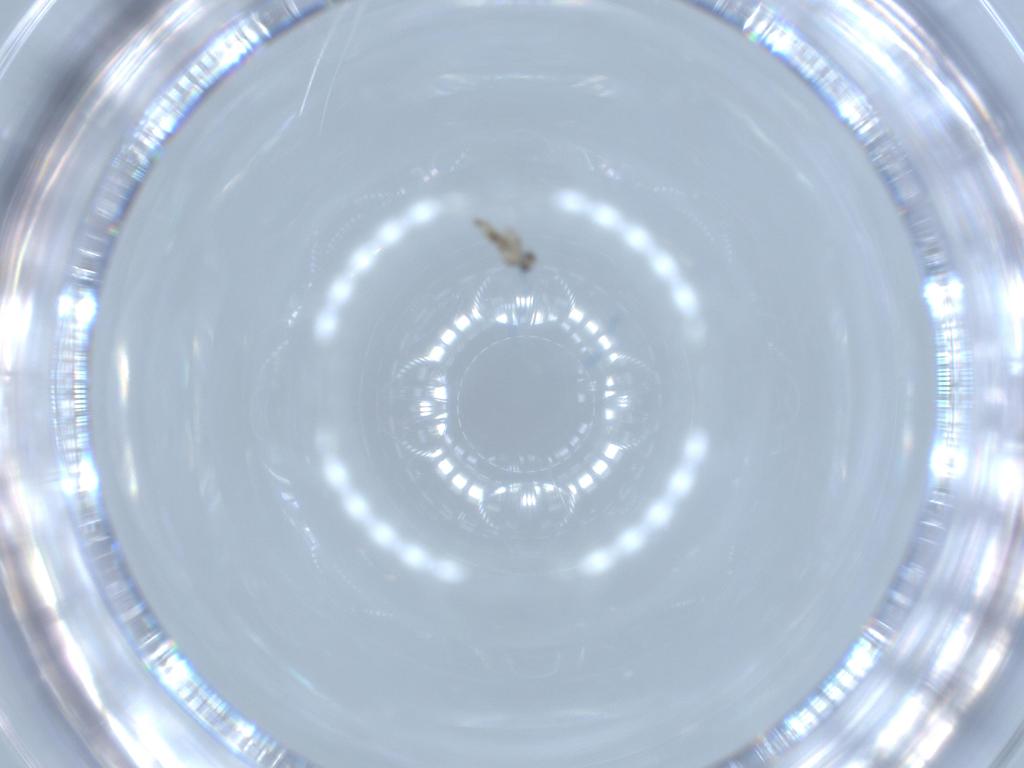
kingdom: Animalia
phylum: Arthropoda
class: Insecta
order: Diptera
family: Cecidomyiidae
